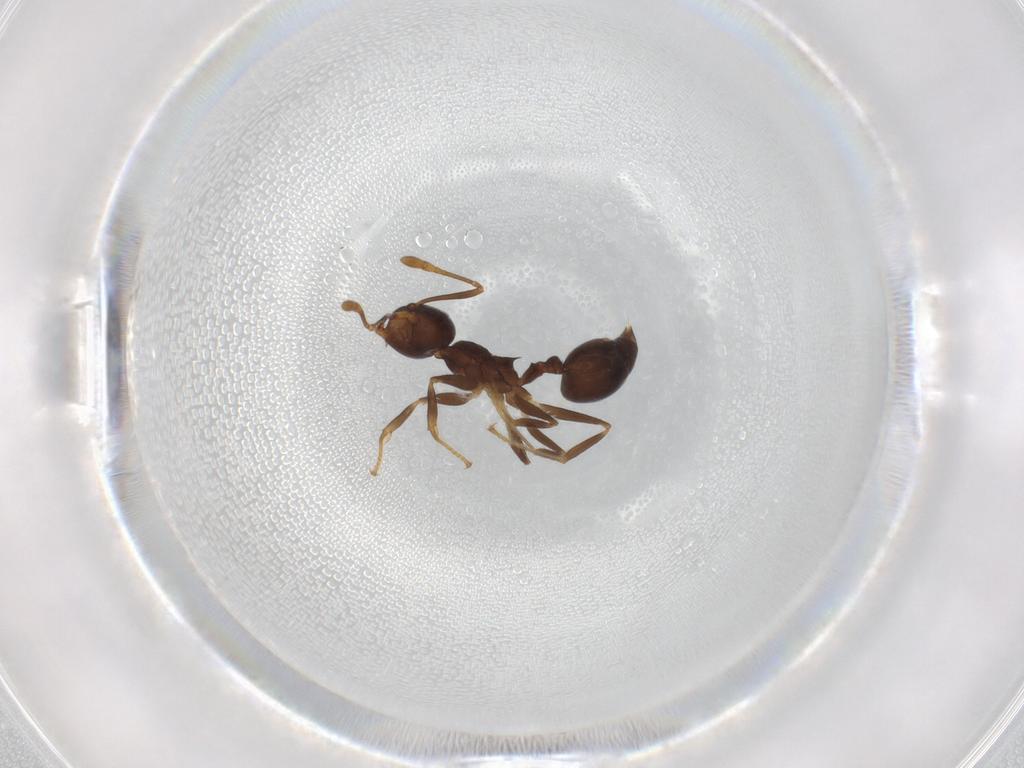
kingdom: Animalia
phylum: Arthropoda
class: Insecta
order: Hymenoptera
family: Formicidae
